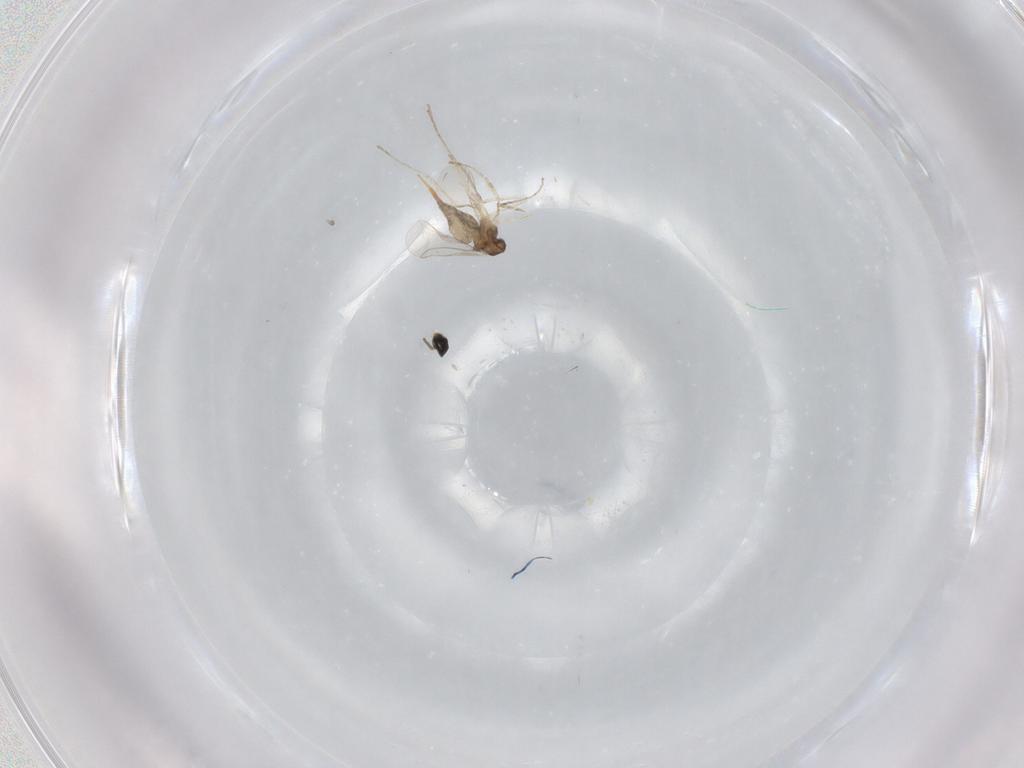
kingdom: Animalia
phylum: Arthropoda
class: Insecta
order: Diptera
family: Cecidomyiidae
